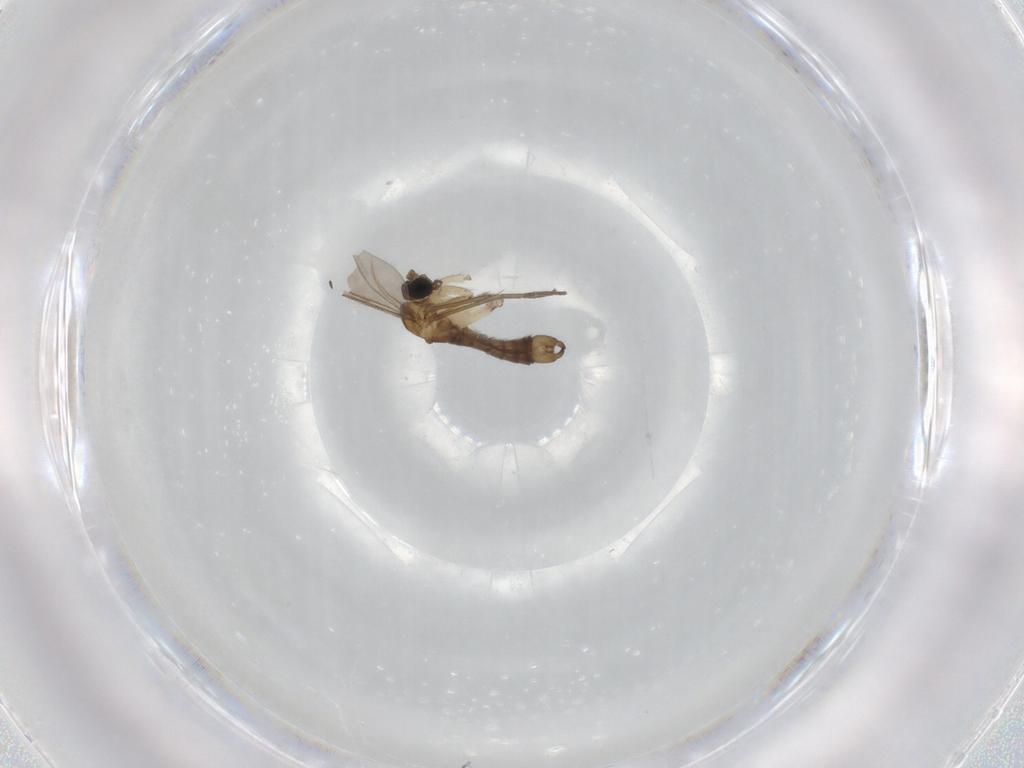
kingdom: Animalia
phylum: Arthropoda
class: Insecta
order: Diptera
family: Sciaridae
